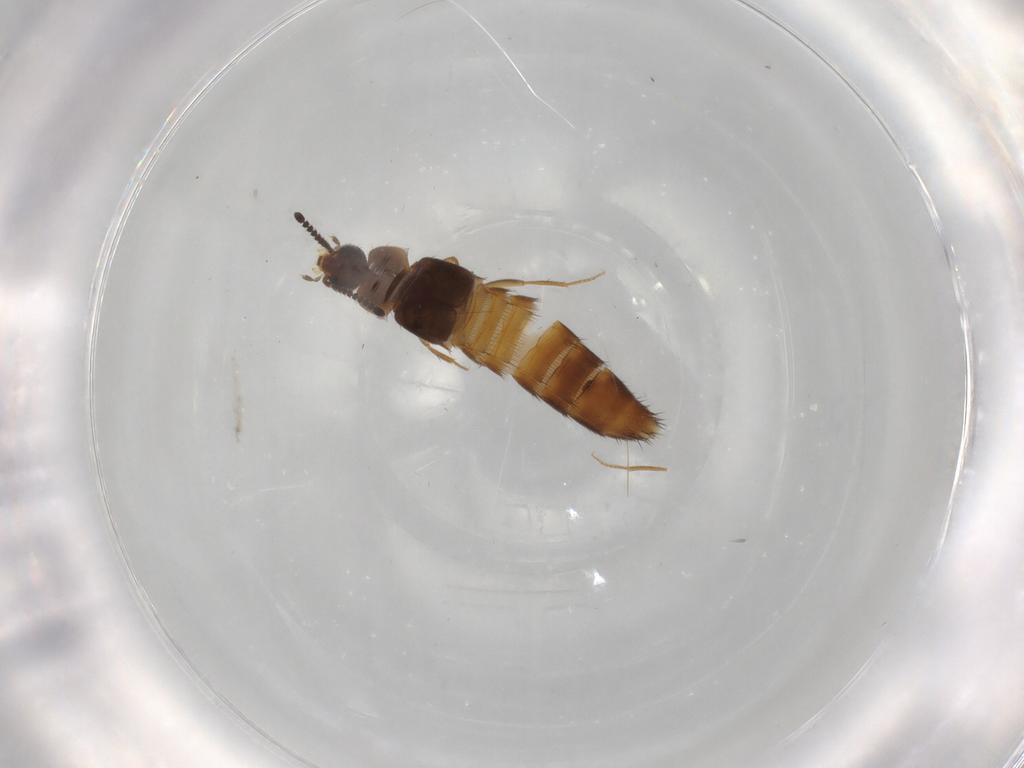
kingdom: Animalia
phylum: Arthropoda
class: Insecta
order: Coleoptera
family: Staphylinidae
